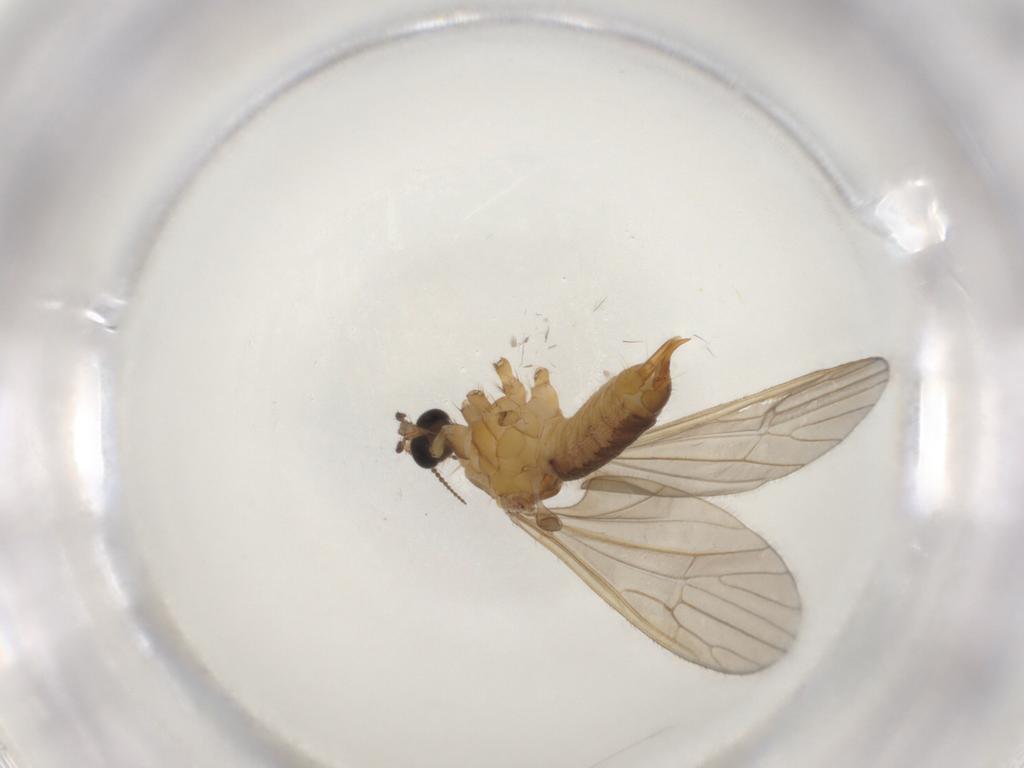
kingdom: Animalia
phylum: Arthropoda
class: Insecta
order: Diptera
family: Limoniidae
